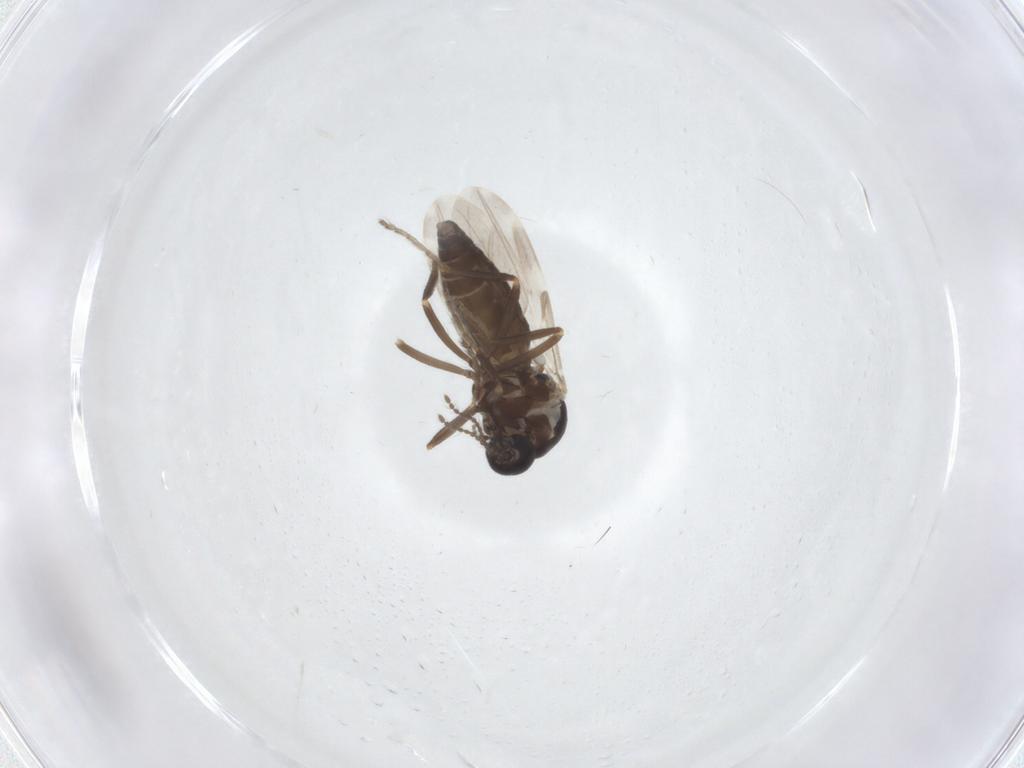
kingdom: Animalia
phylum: Arthropoda
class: Insecta
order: Diptera
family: Ceratopogonidae
